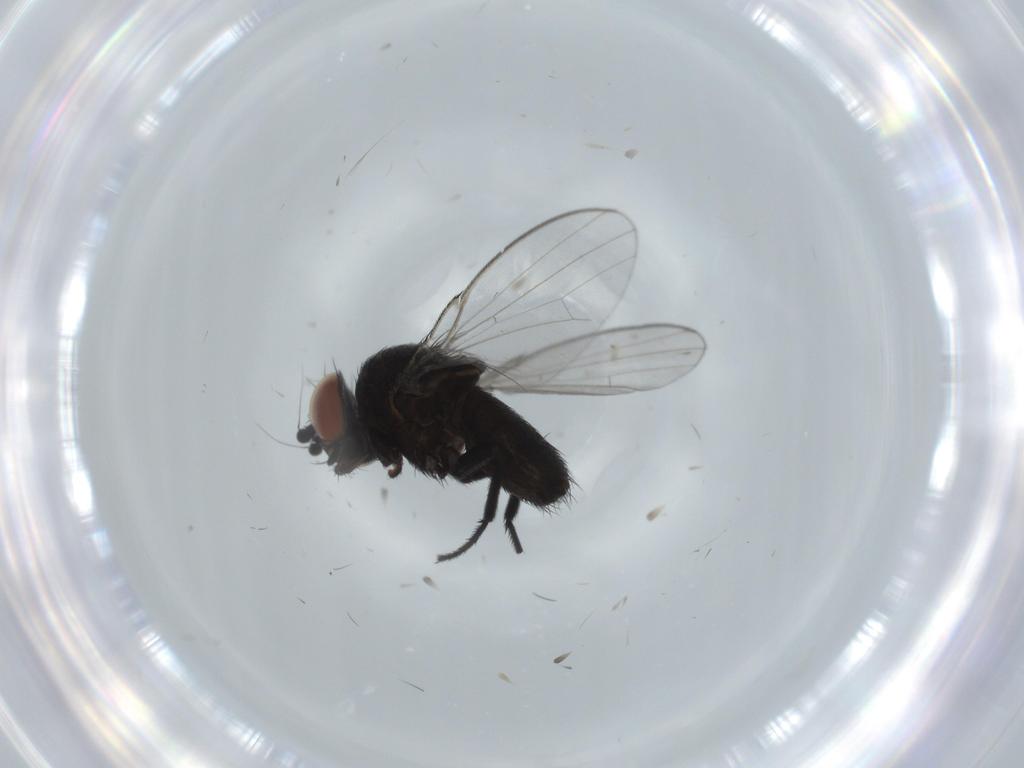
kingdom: Animalia
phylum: Arthropoda
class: Insecta
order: Diptera
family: Milichiidae
